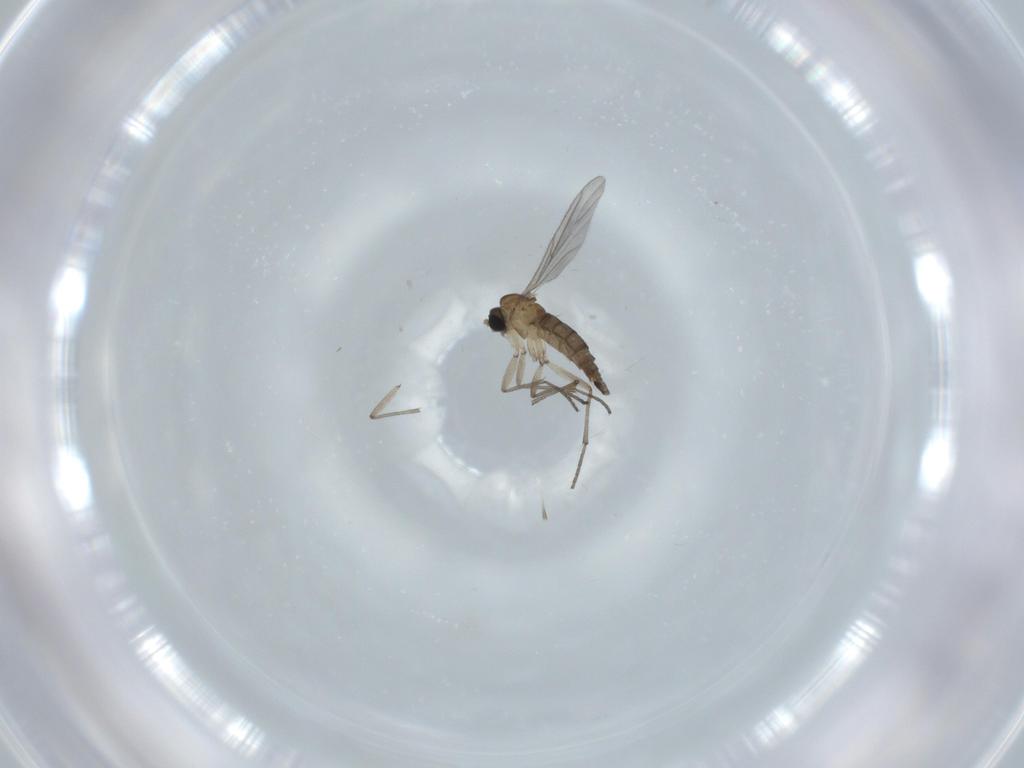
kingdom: Animalia
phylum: Arthropoda
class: Insecta
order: Diptera
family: Sciaridae
